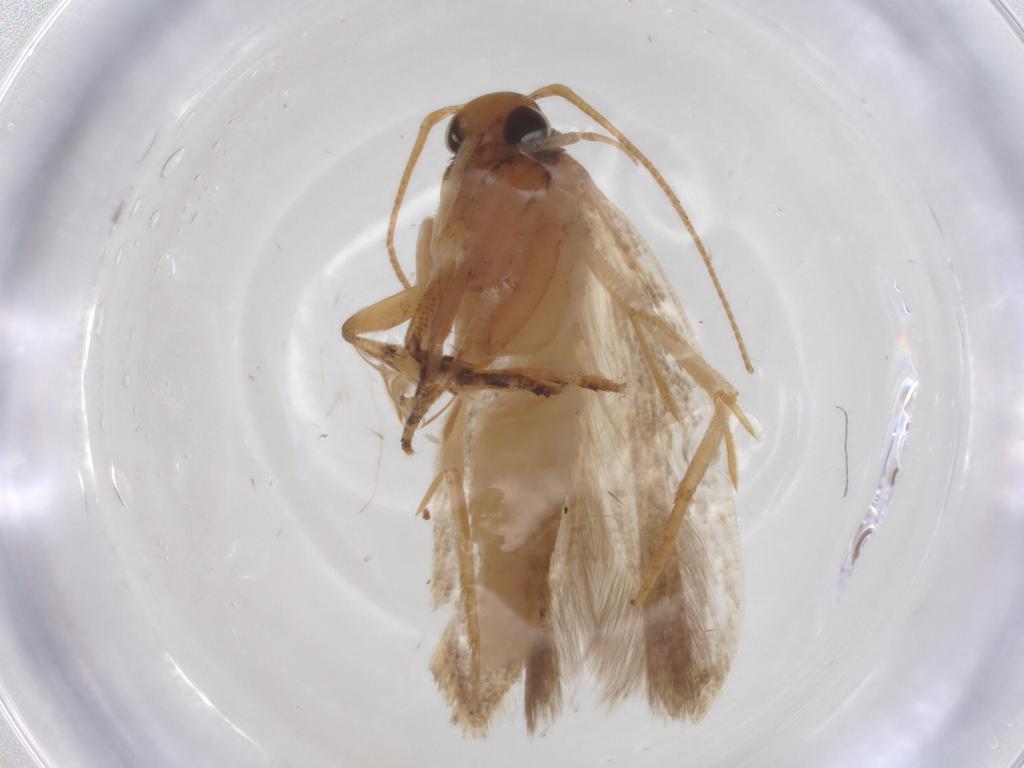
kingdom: Animalia
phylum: Arthropoda
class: Insecta
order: Lepidoptera
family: Gelechiidae
